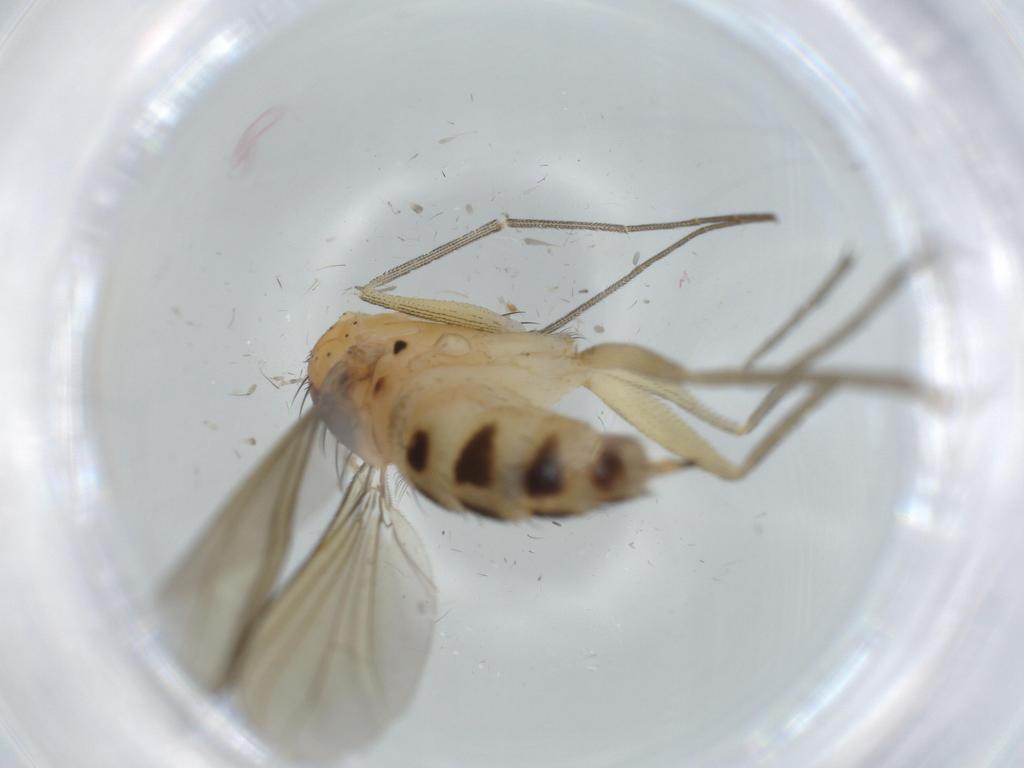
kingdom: Animalia
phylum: Arthropoda
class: Insecta
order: Diptera
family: Dolichopodidae
